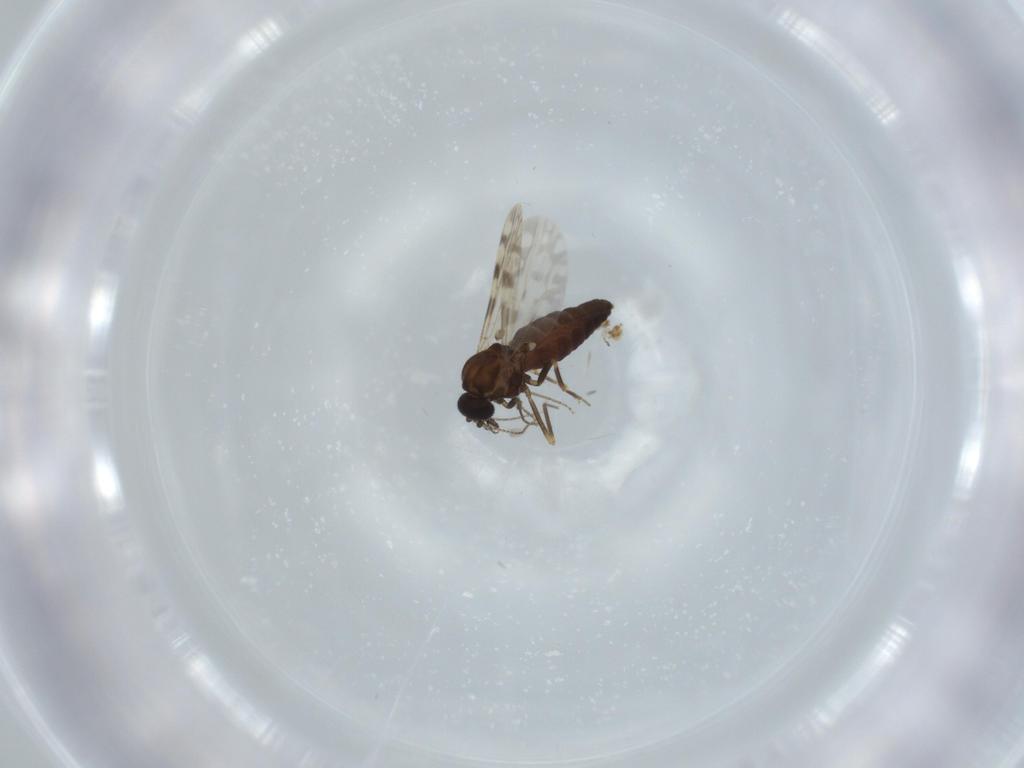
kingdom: Animalia
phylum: Arthropoda
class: Insecta
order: Diptera
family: Ceratopogonidae
